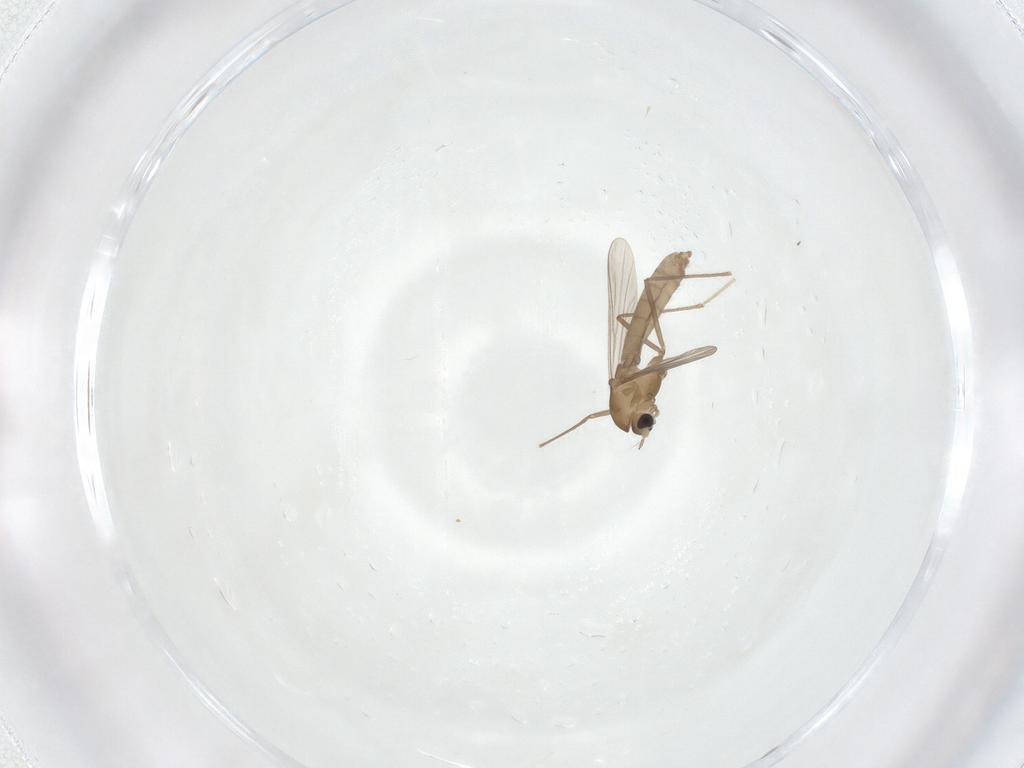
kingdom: Animalia
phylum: Arthropoda
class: Insecta
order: Diptera
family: Chironomidae
